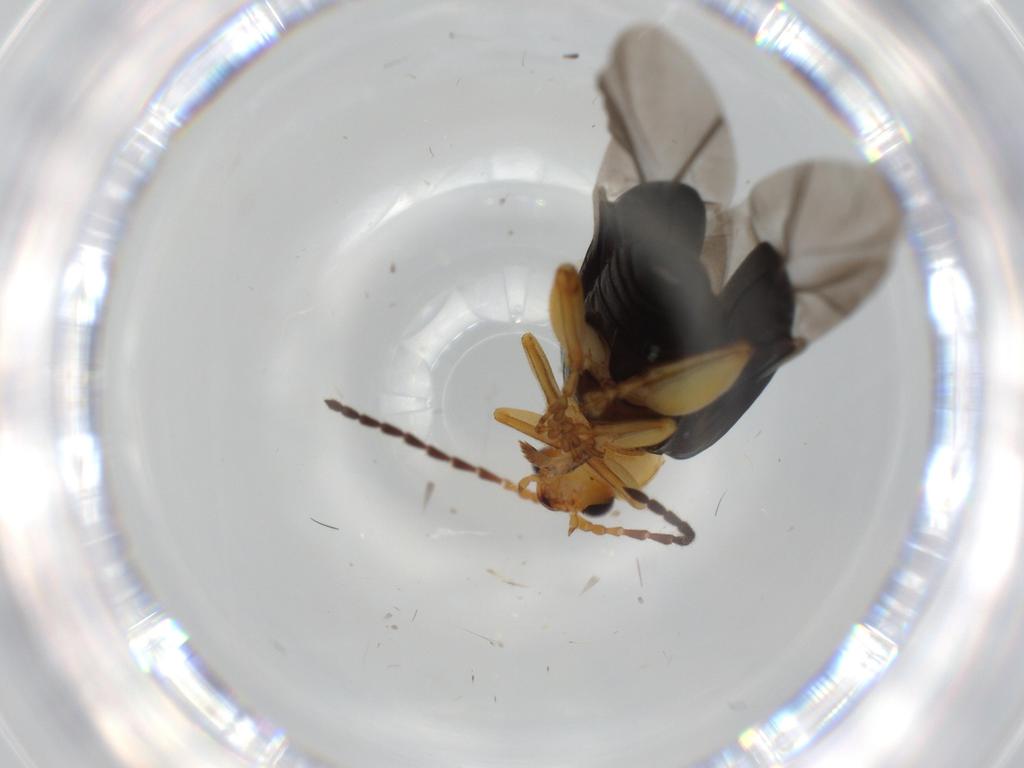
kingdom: Animalia
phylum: Arthropoda
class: Insecta
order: Coleoptera
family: Chrysomelidae
